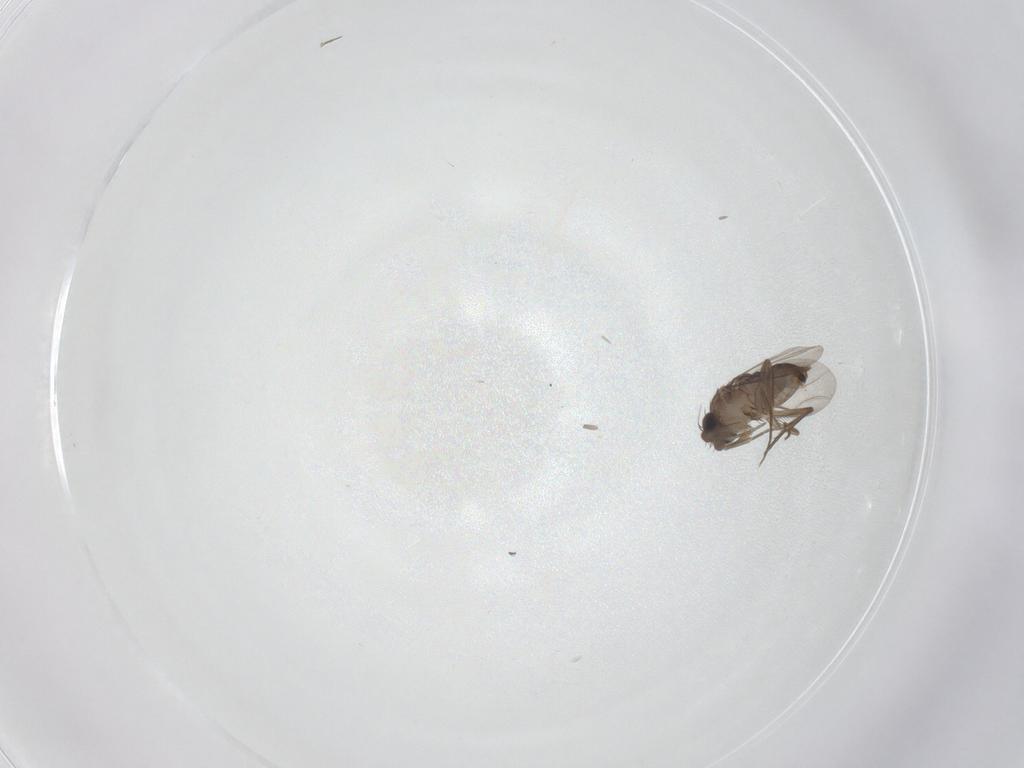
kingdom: Animalia
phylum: Arthropoda
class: Insecta
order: Diptera
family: Phoridae
